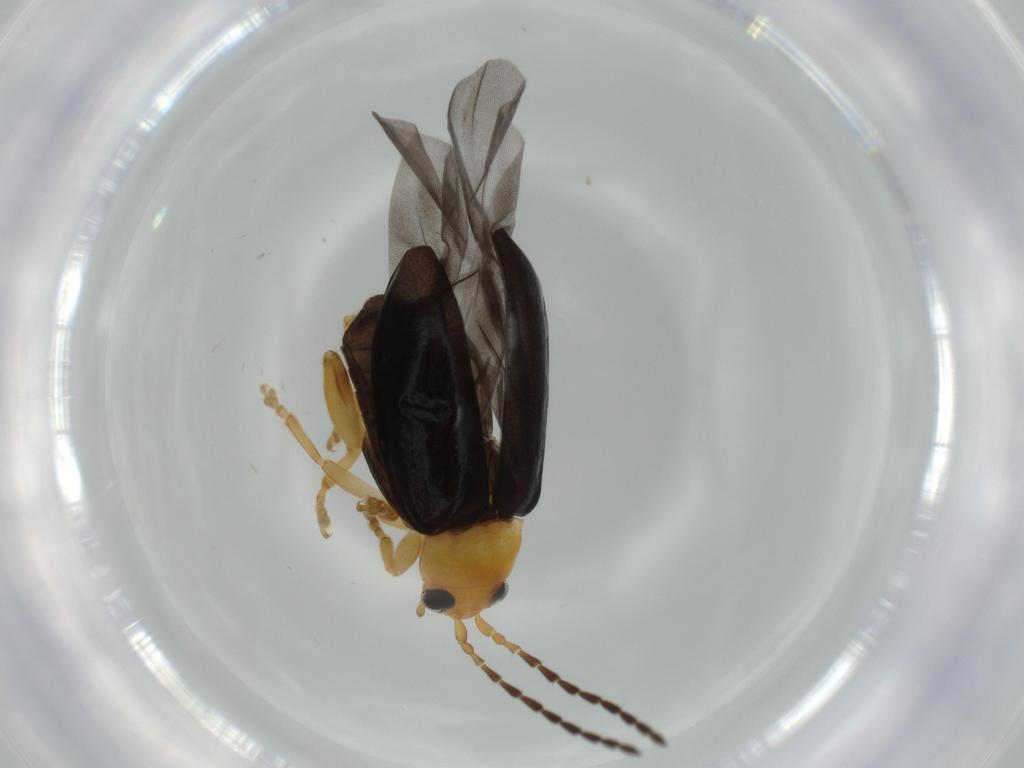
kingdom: Animalia
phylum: Arthropoda
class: Insecta
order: Coleoptera
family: Chrysomelidae
